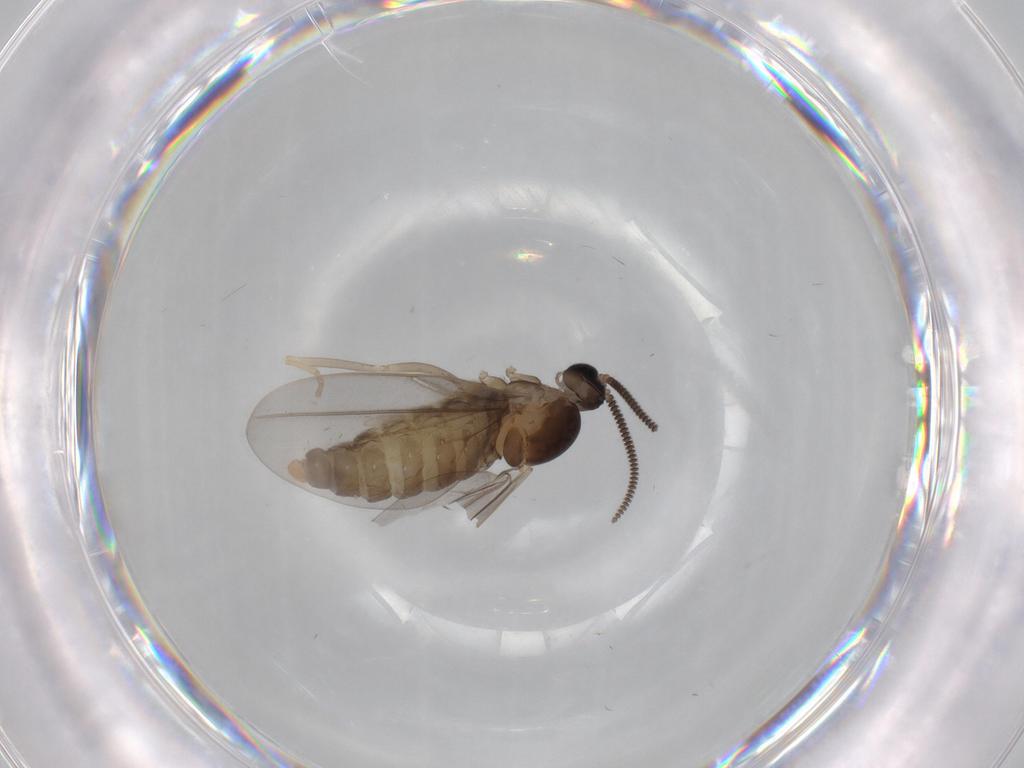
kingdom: Animalia
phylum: Arthropoda
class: Insecta
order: Diptera
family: Cecidomyiidae
